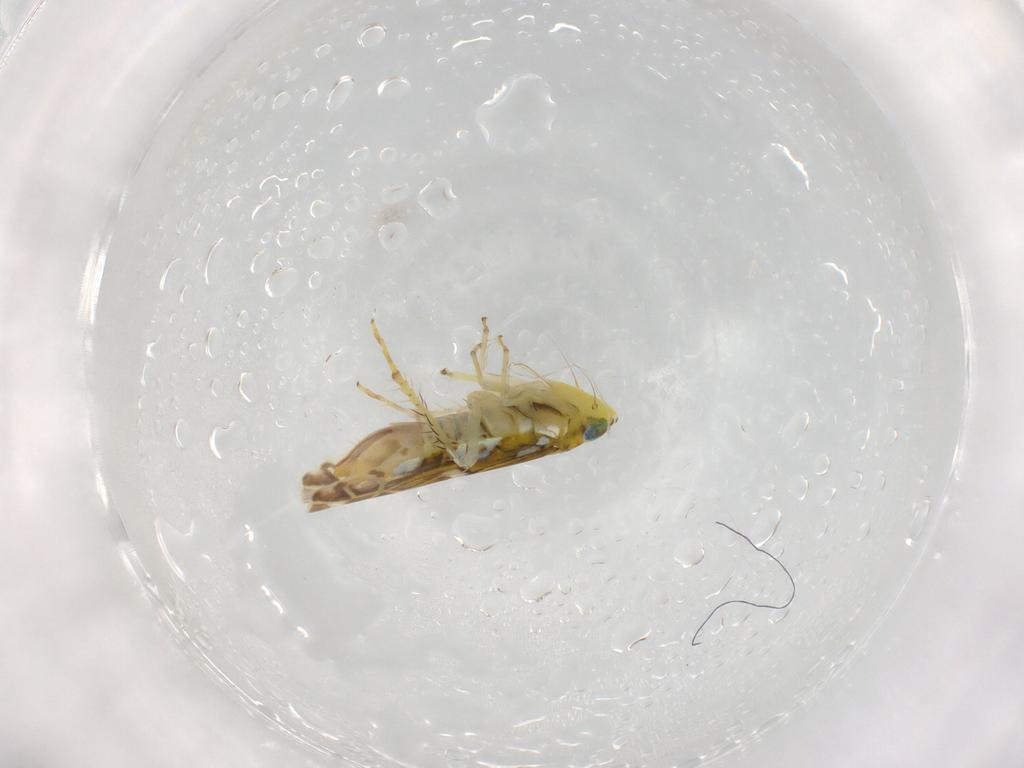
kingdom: Animalia
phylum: Arthropoda
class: Insecta
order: Hemiptera
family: Cicadellidae
